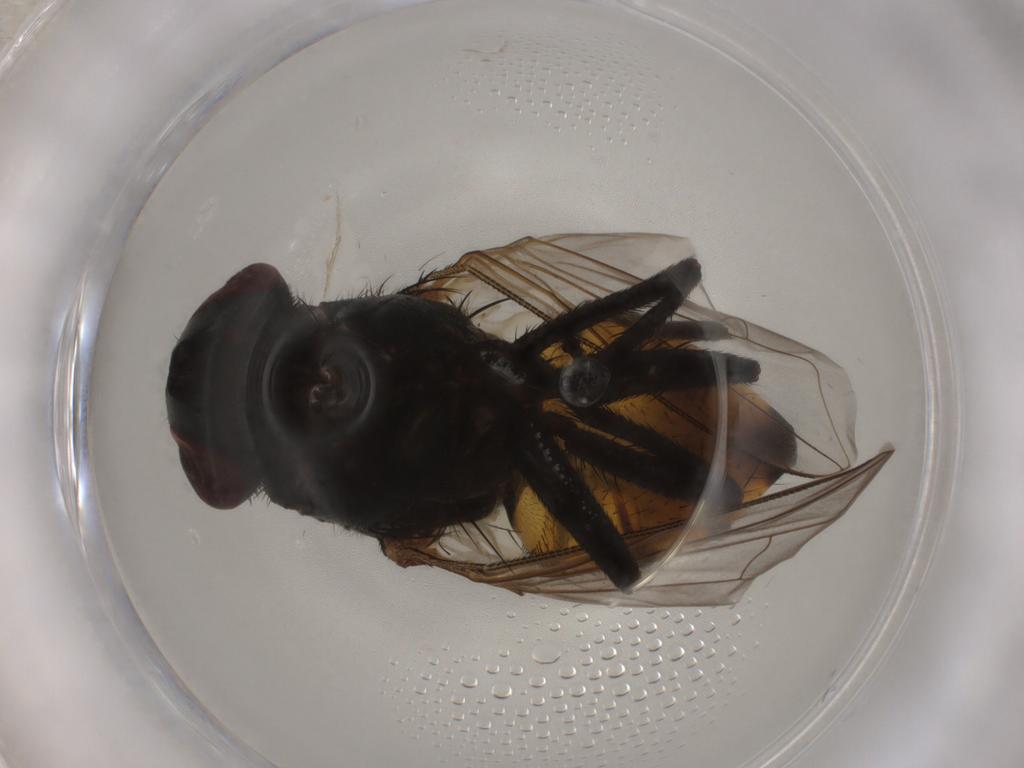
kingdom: Animalia
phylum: Arthropoda
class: Insecta
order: Diptera
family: Muscidae
